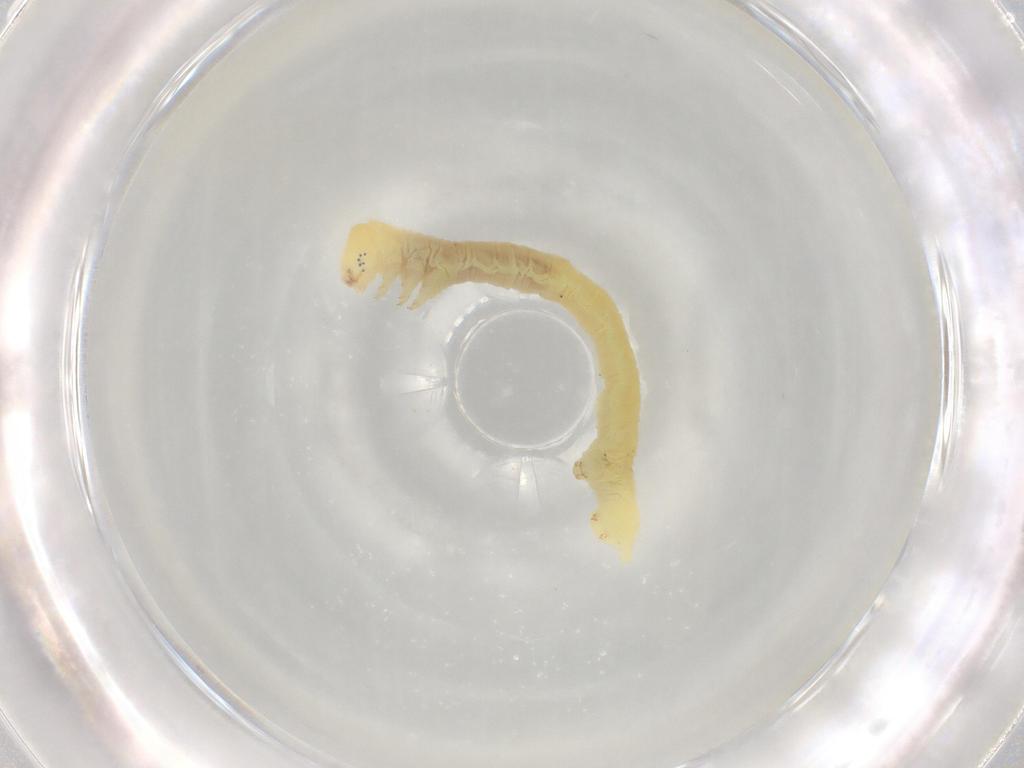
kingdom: Animalia
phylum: Arthropoda
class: Insecta
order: Lepidoptera
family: Geometridae
